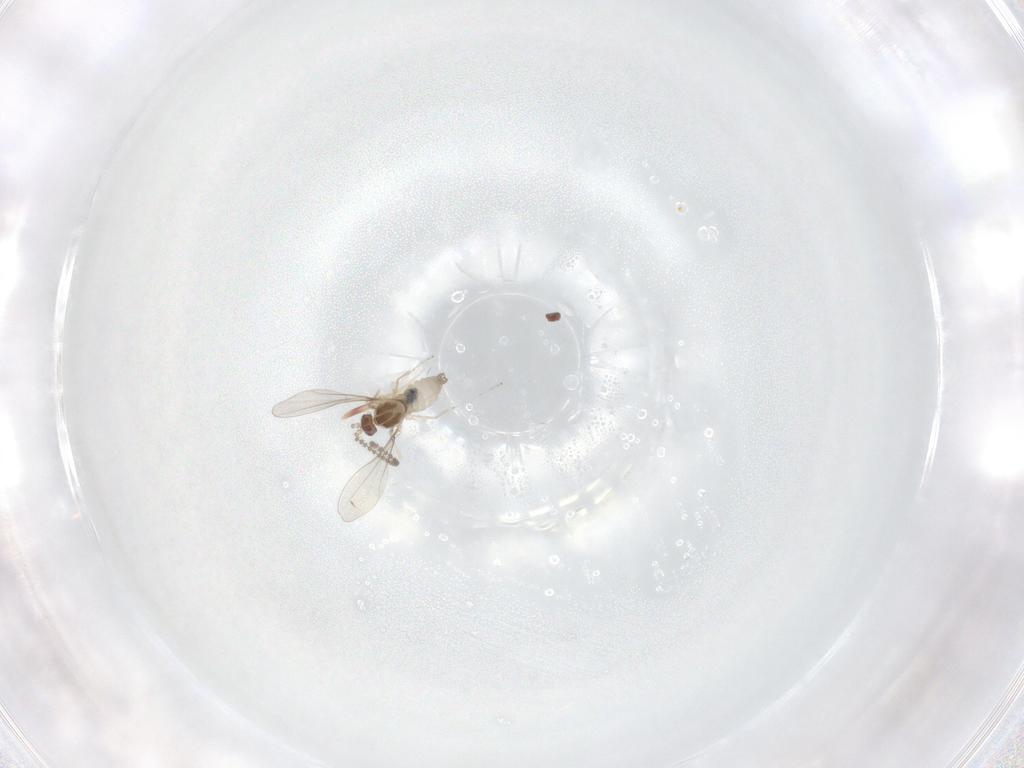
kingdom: Animalia
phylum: Arthropoda
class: Insecta
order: Diptera
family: Cecidomyiidae
